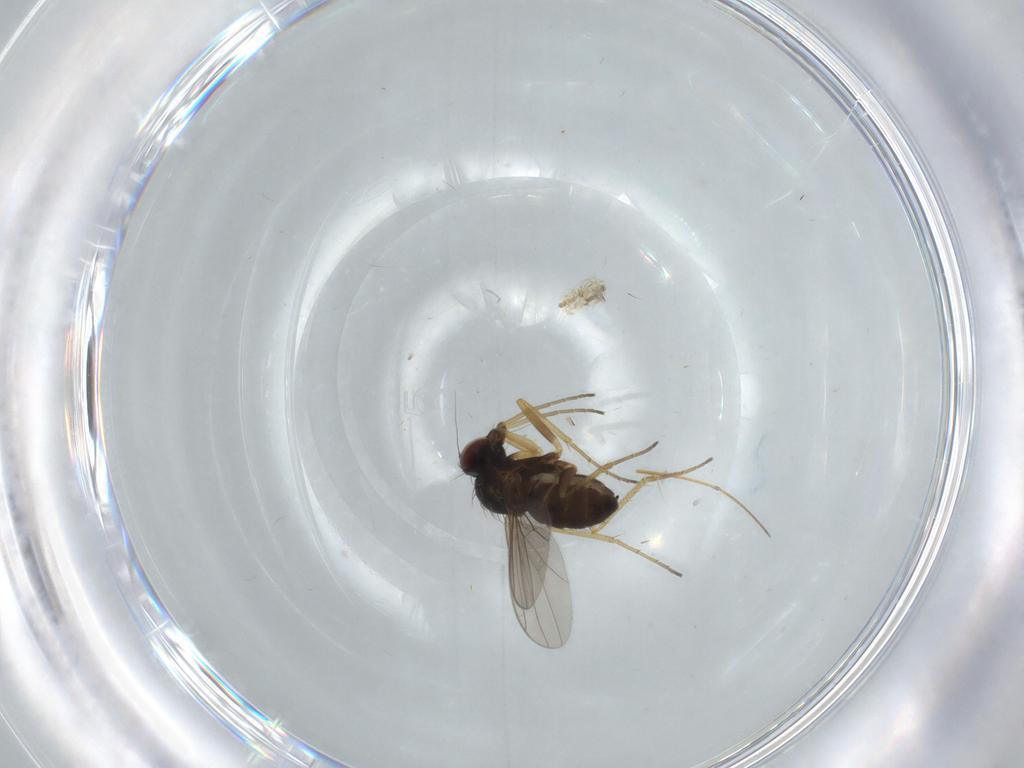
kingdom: Animalia
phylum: Arthropoda
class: Insecta
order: Diptera
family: Dolichopodidae
